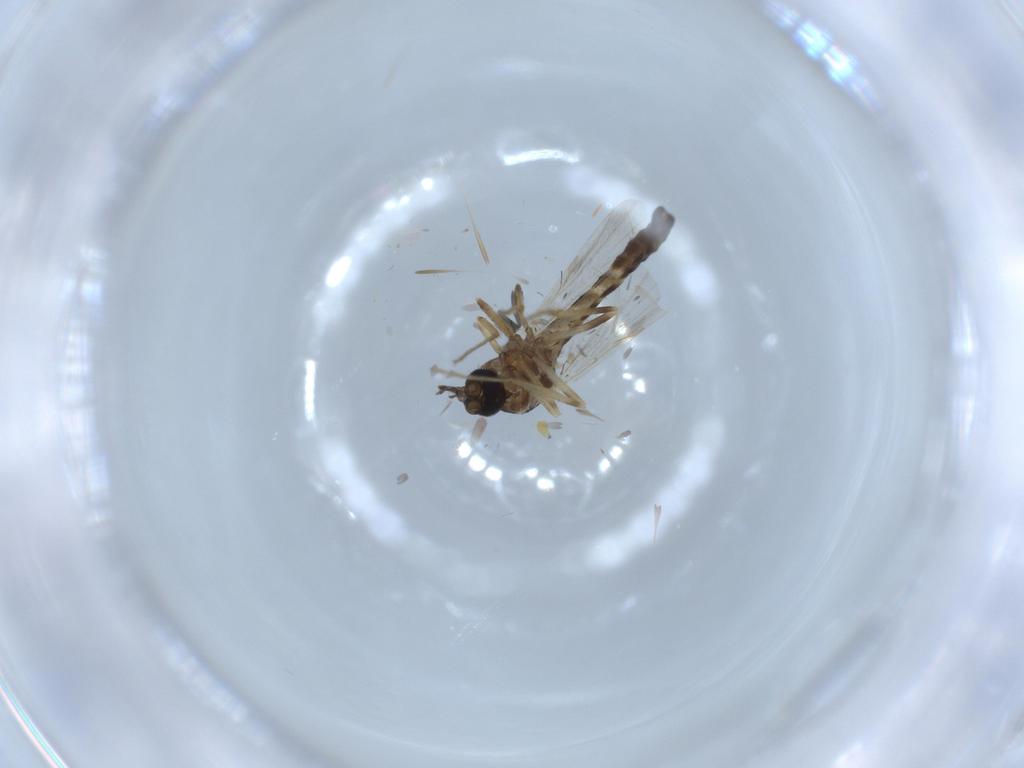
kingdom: Animalia
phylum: Arthropoda
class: Insecta
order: Diptera
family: Ceratopogonidae
